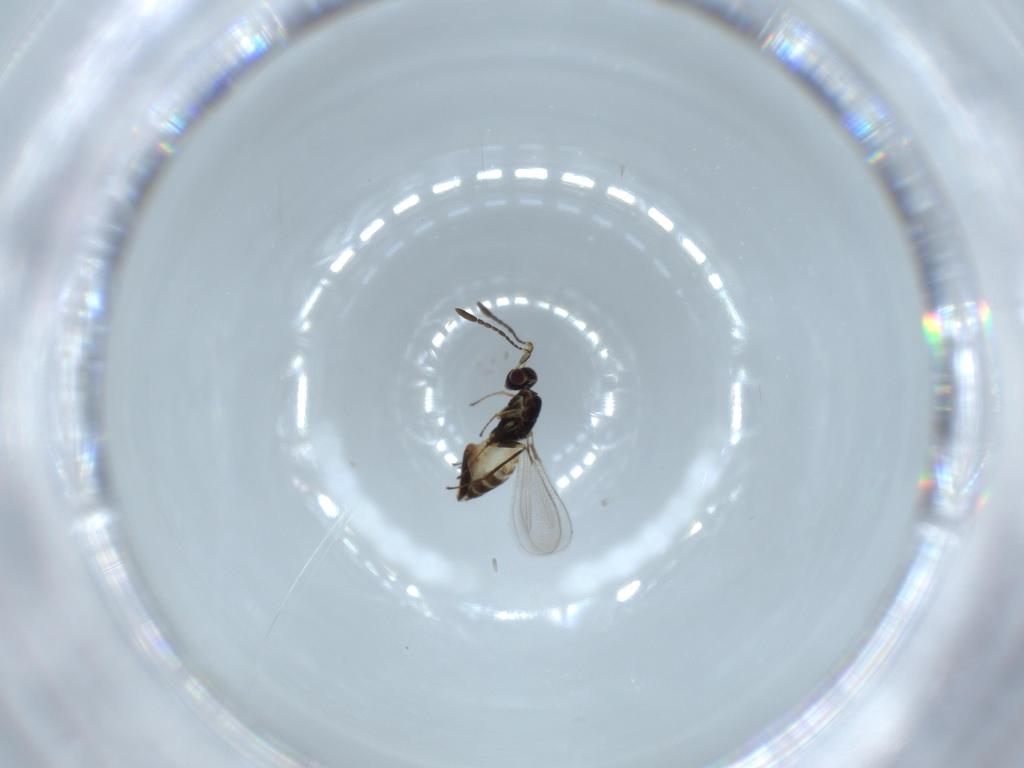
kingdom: Animalia
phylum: Arthropoda
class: Insecta
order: Hymenoptera
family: Mymaridae
